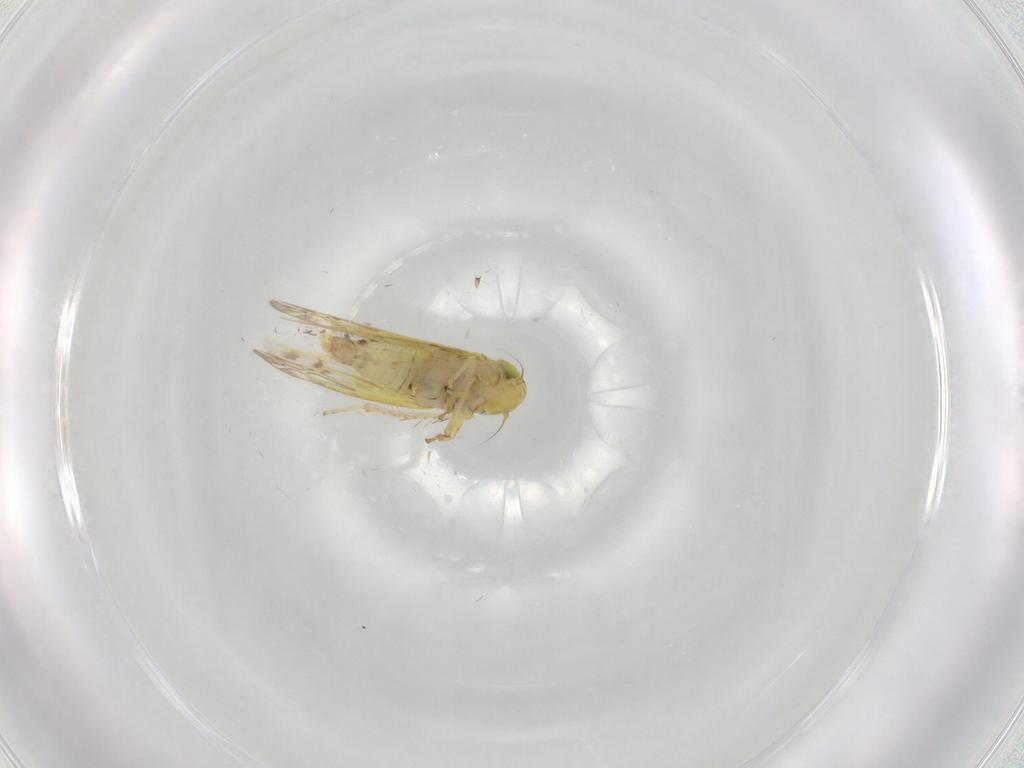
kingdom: Animalia
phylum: Arthropoda
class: Insecta
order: Hemiptera
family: Cicadellidae
